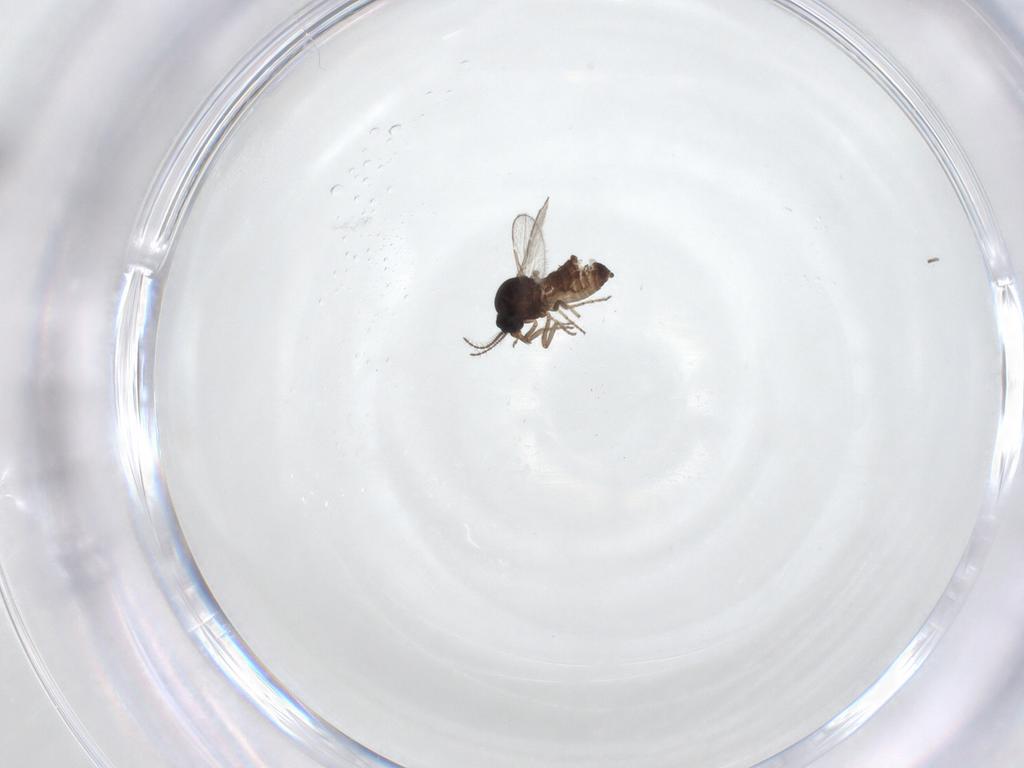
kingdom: Animalia
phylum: Arthropoda
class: Insecta
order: Diptera
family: Ceratopogonidae
